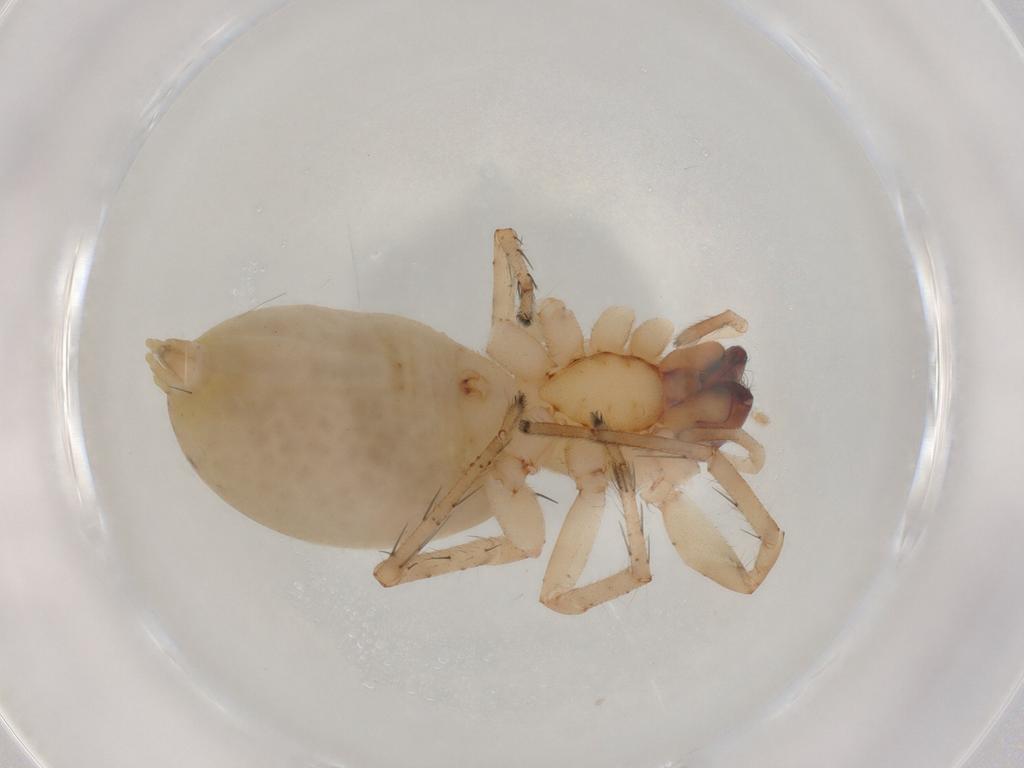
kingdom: Animalia
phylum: Arthropoda
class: Arachnida
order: Araneae
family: Anyphaenidae
